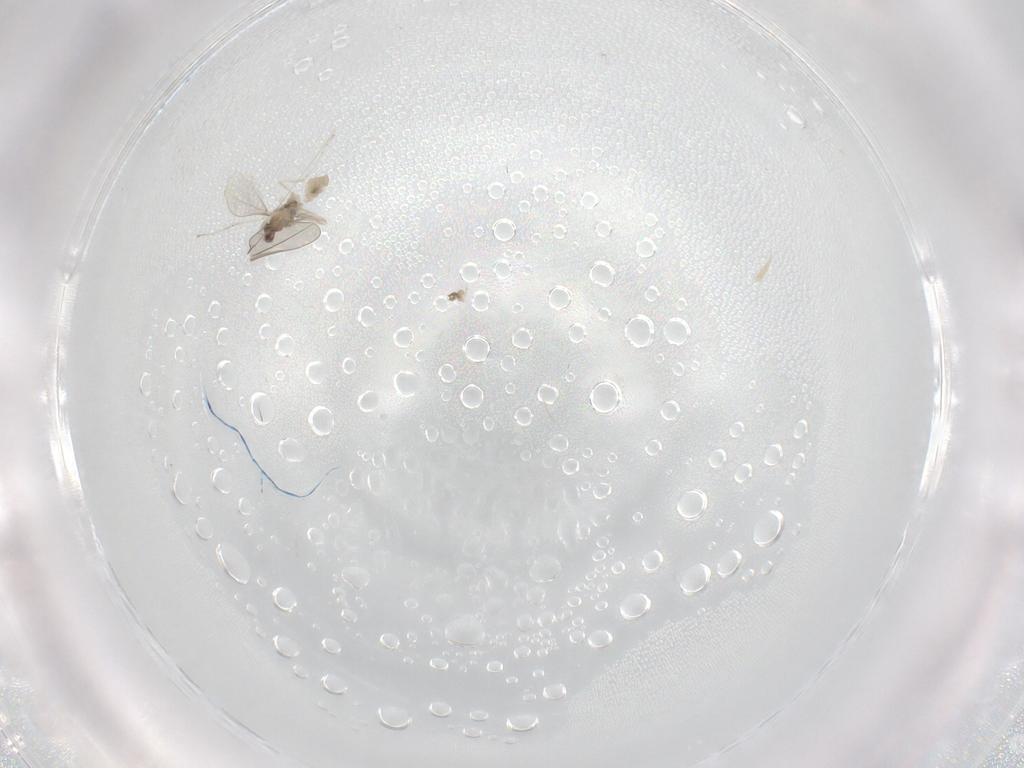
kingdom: Animalia
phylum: Arthropoda
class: Insecta
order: Diptera
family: Cecidomyiidae
